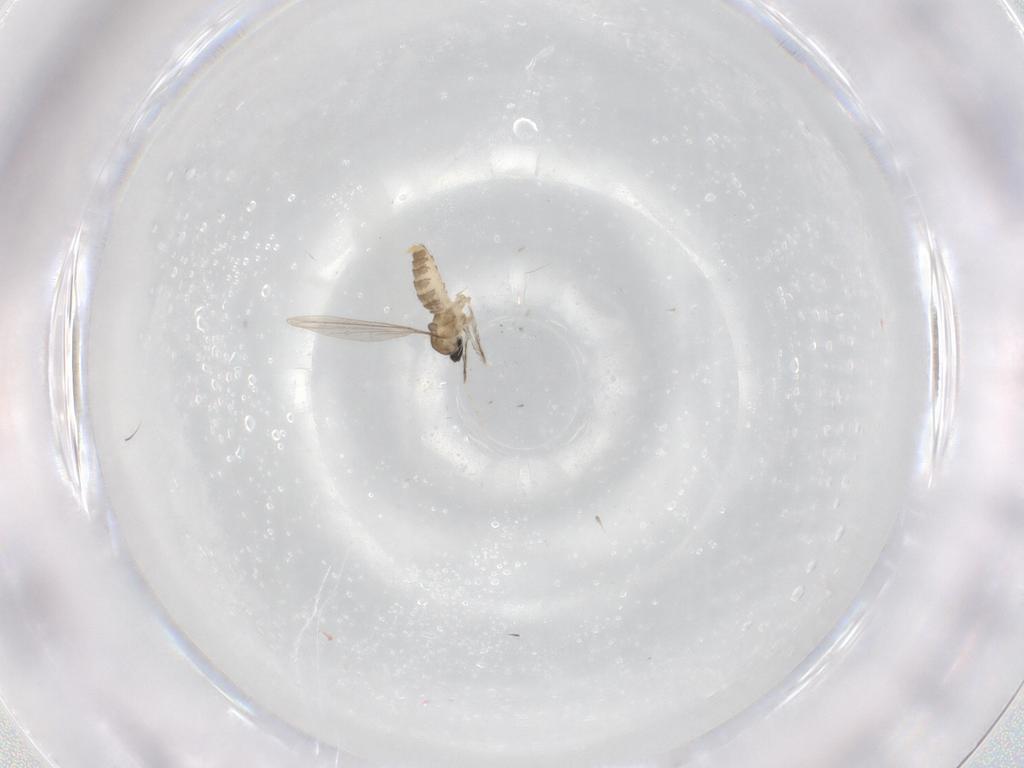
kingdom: Animalia
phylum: Arthropoda
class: Insecta
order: Diptera
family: Cecidomyiidae
